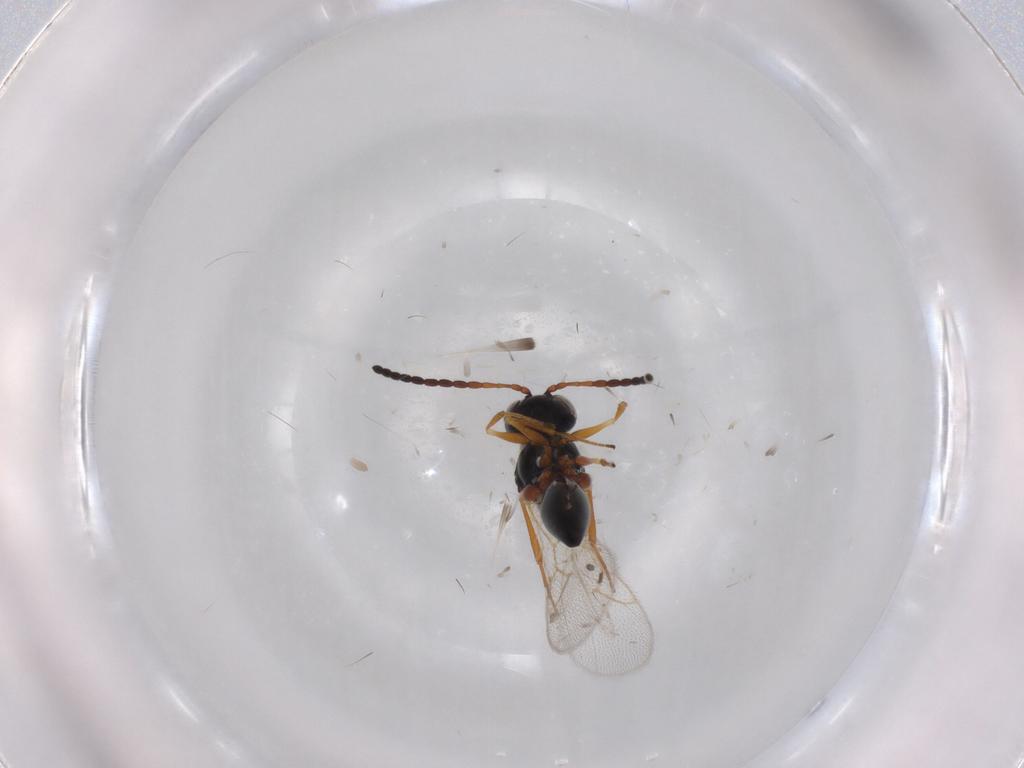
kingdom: Animalia
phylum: Arthropoda
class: Insecta
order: Hymenoptera
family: Figitidae
